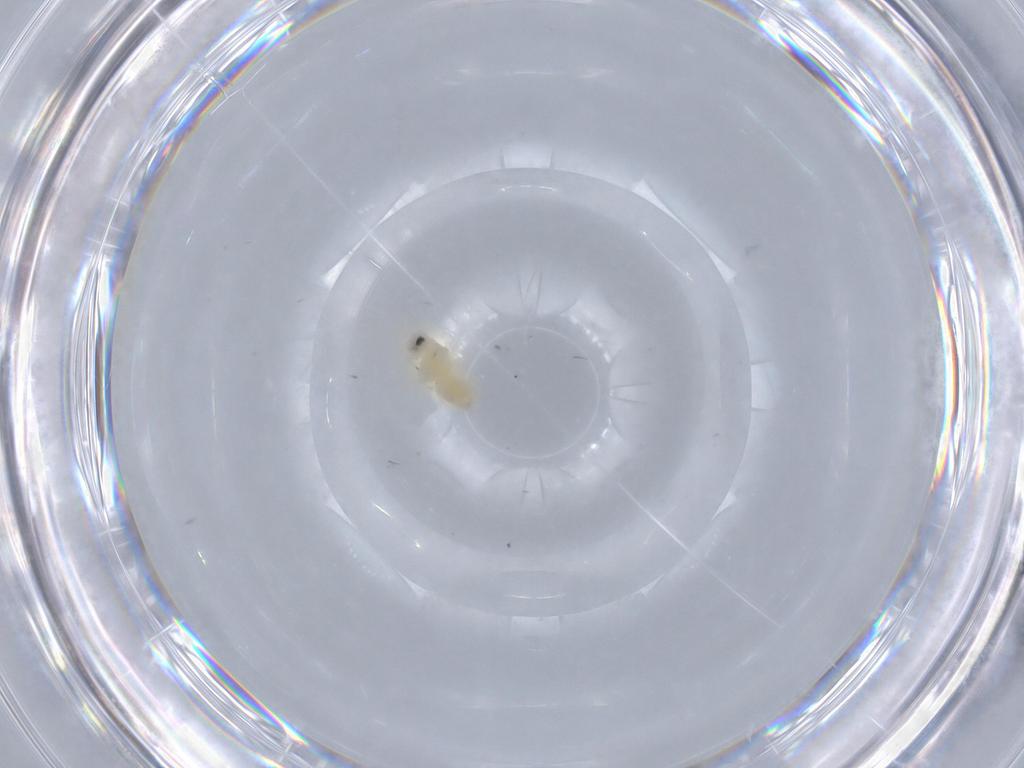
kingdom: Animalia
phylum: Arthropoda
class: Insecta
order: Hemiptera
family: Aleyrodidae
